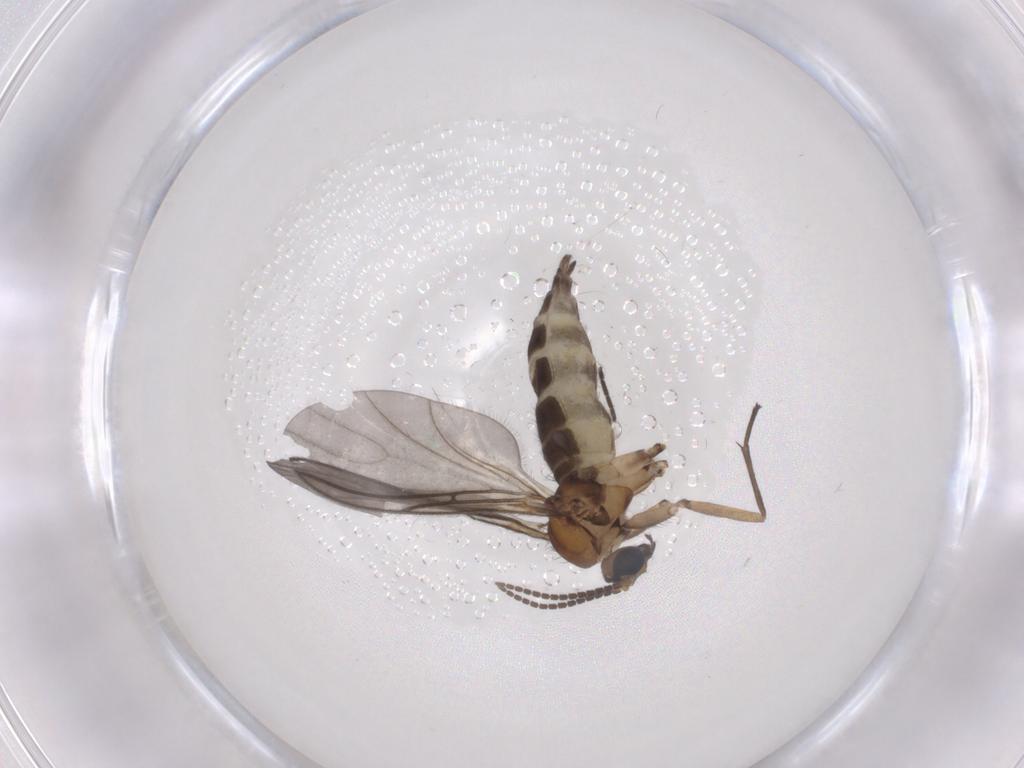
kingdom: Animalia
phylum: Arthropoda
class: Insecta
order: Diptera
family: Sciaridae
